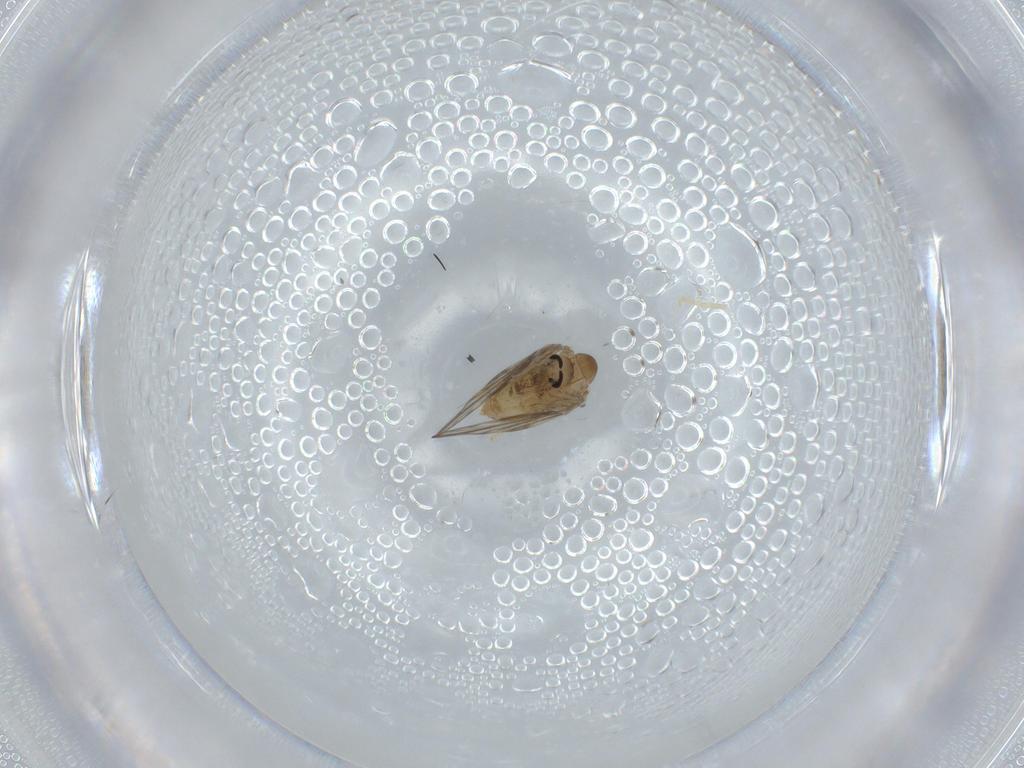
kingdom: Animalia
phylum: Arthropoda
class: Insecta
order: Diptera
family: Psychodidae
